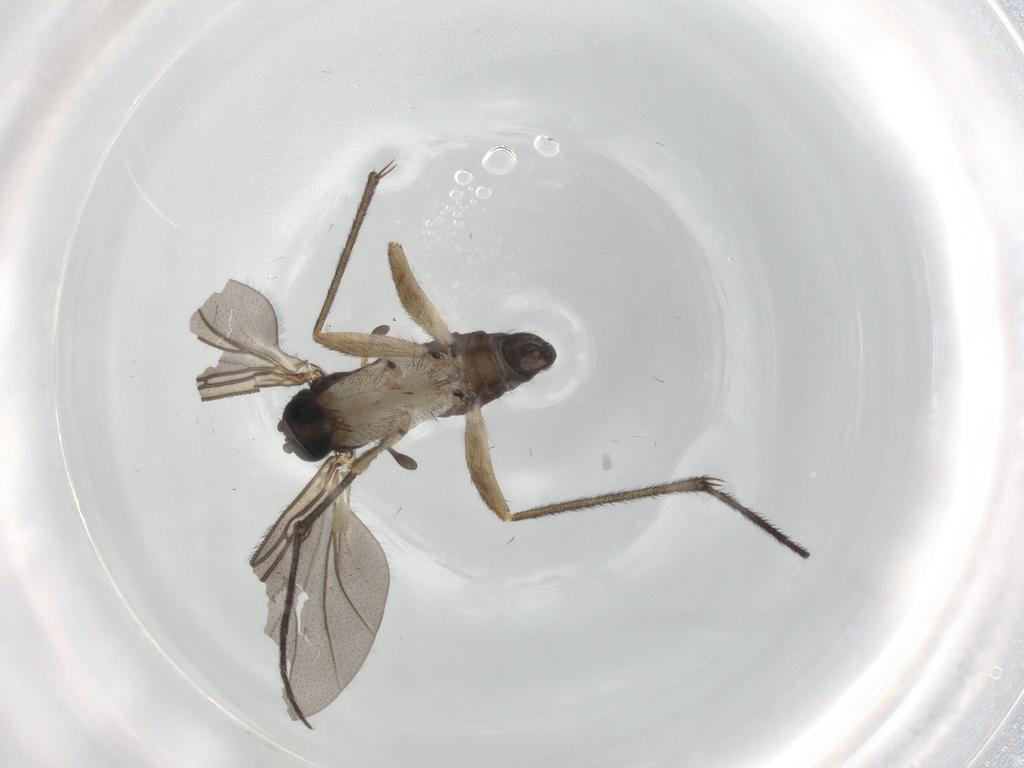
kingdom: Animalia
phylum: Arthropoda
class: Insecta
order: Diptera
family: Sciaridae
